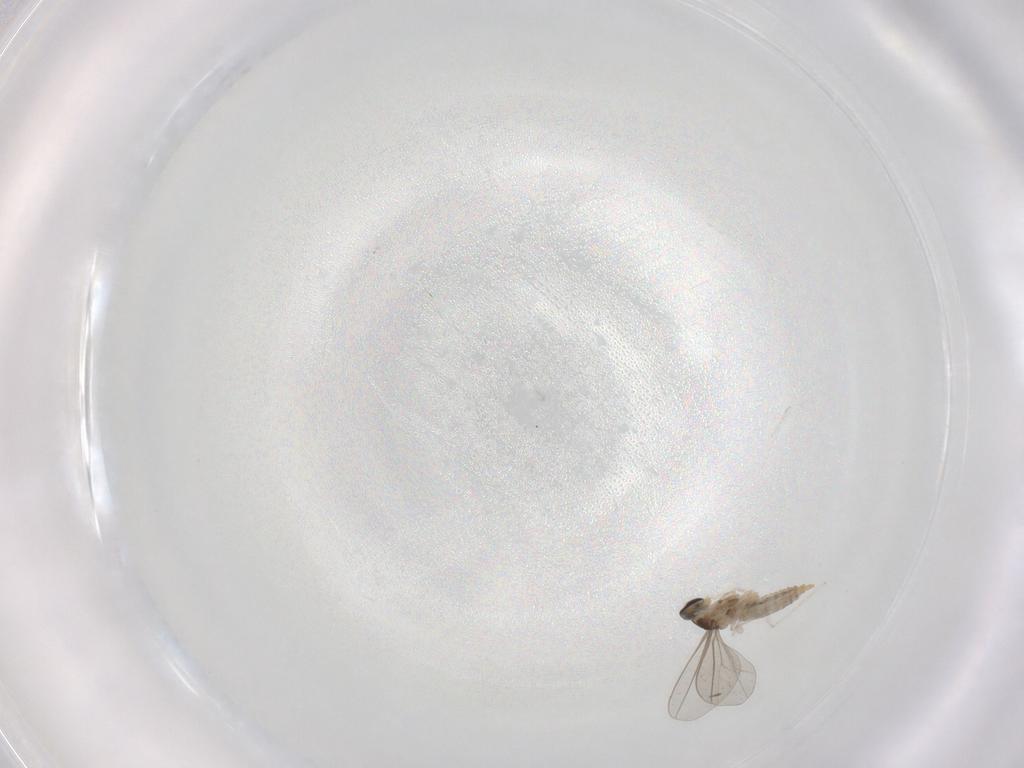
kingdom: Animalia
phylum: Arthropoda
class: Insecta
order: Diptera
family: Cecidomyiidae
